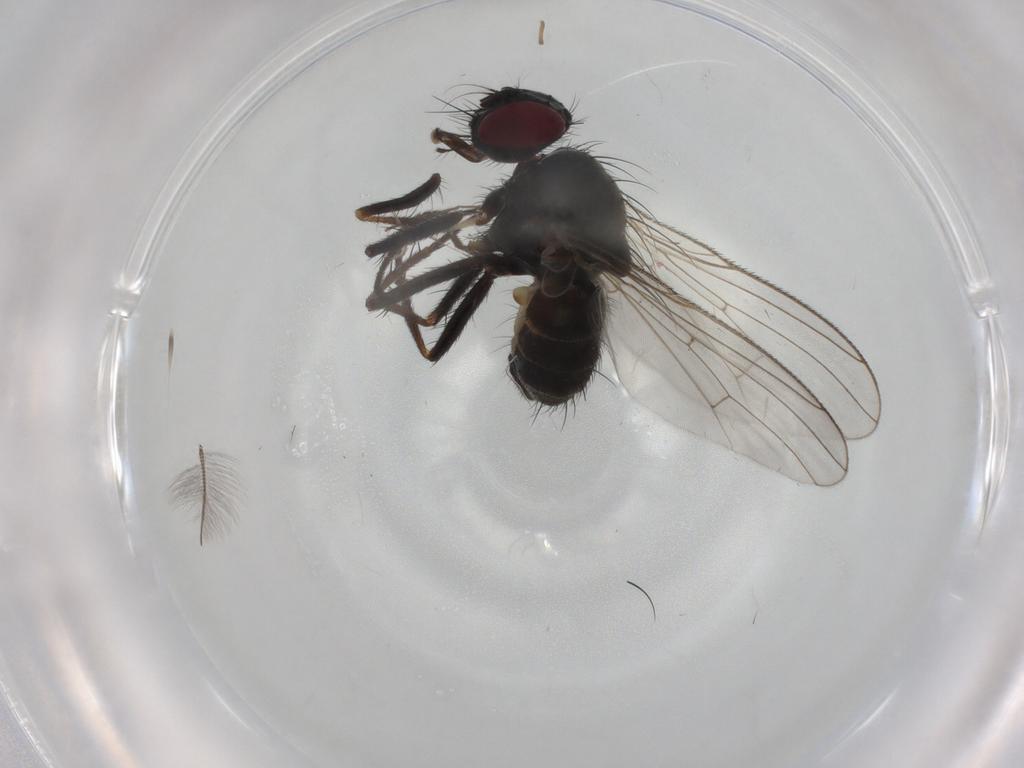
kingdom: Animalia
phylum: Arthropoda
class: Insecta
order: Diptera
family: Chironomidae
